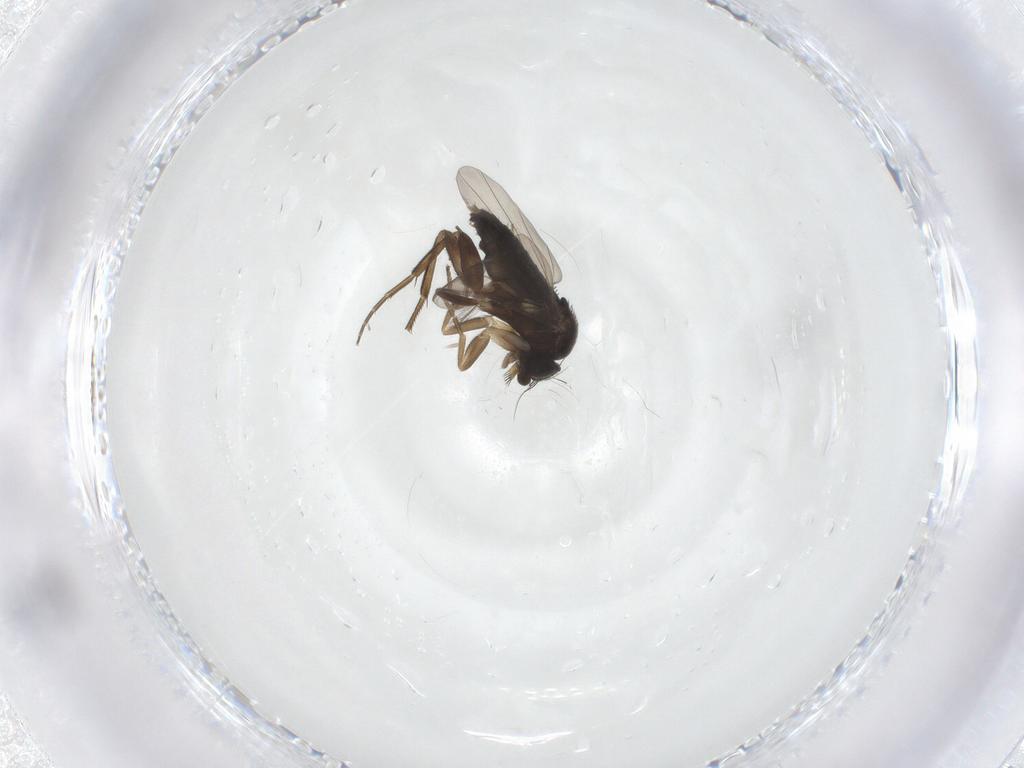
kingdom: Animalia
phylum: Arthropoda
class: Insecta
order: Diptera
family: Phoridae
